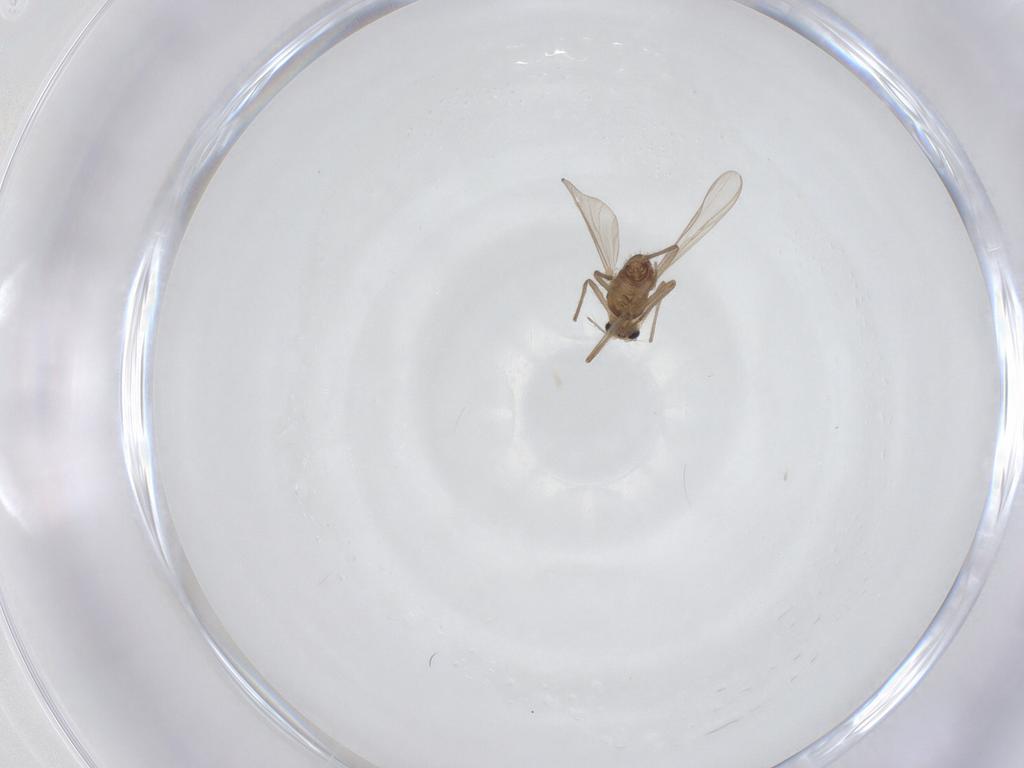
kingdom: Animalia
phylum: Arthropoda
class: Insecta
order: Diptera
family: Chironomidae
